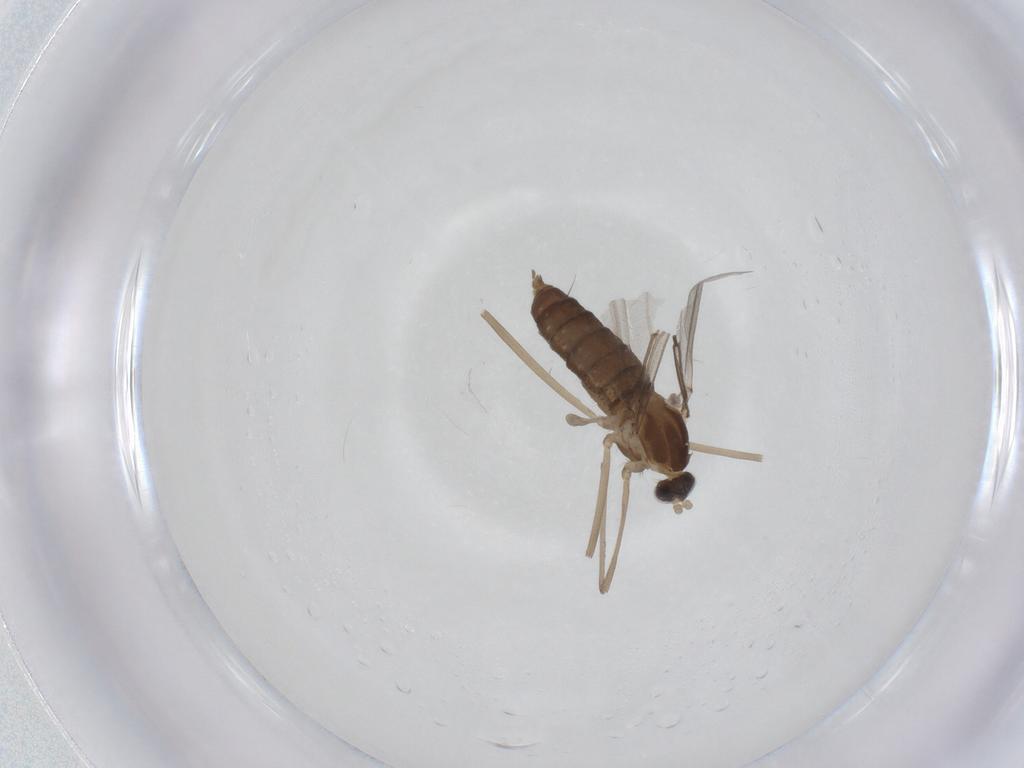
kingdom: Animalia
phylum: Arthropoda
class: Insecta
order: Diptera
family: Cecidomyiidae
